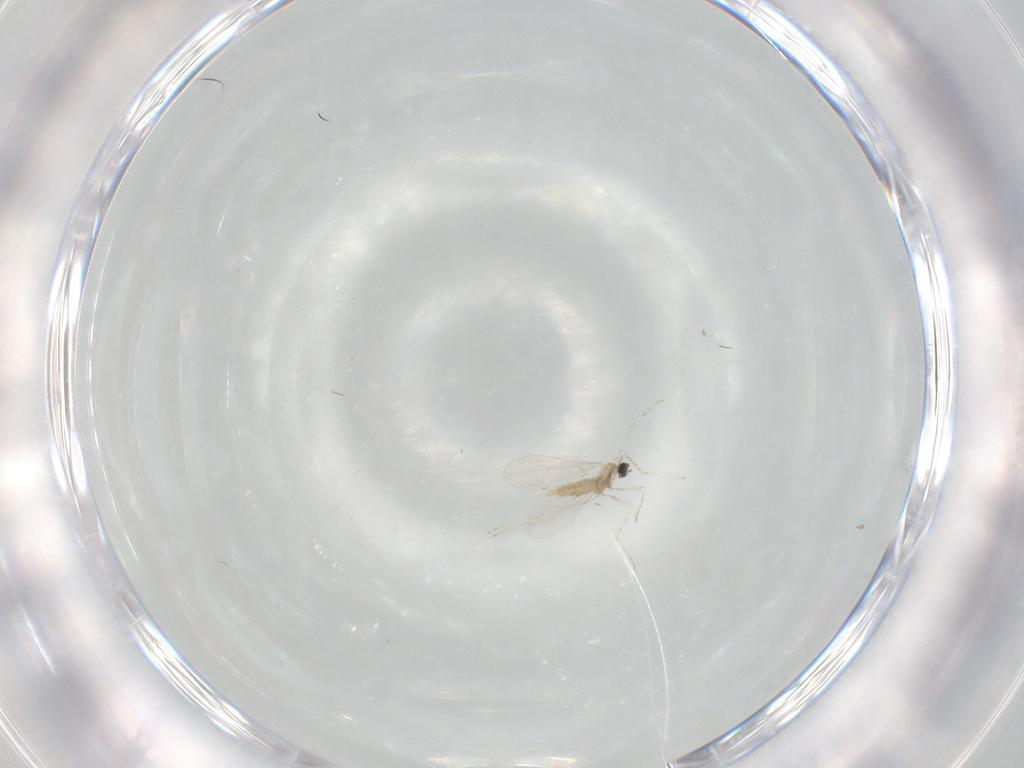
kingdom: Animalia
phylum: Arthropoda
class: Insecta
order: Diptera
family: Cecidomyiidae
